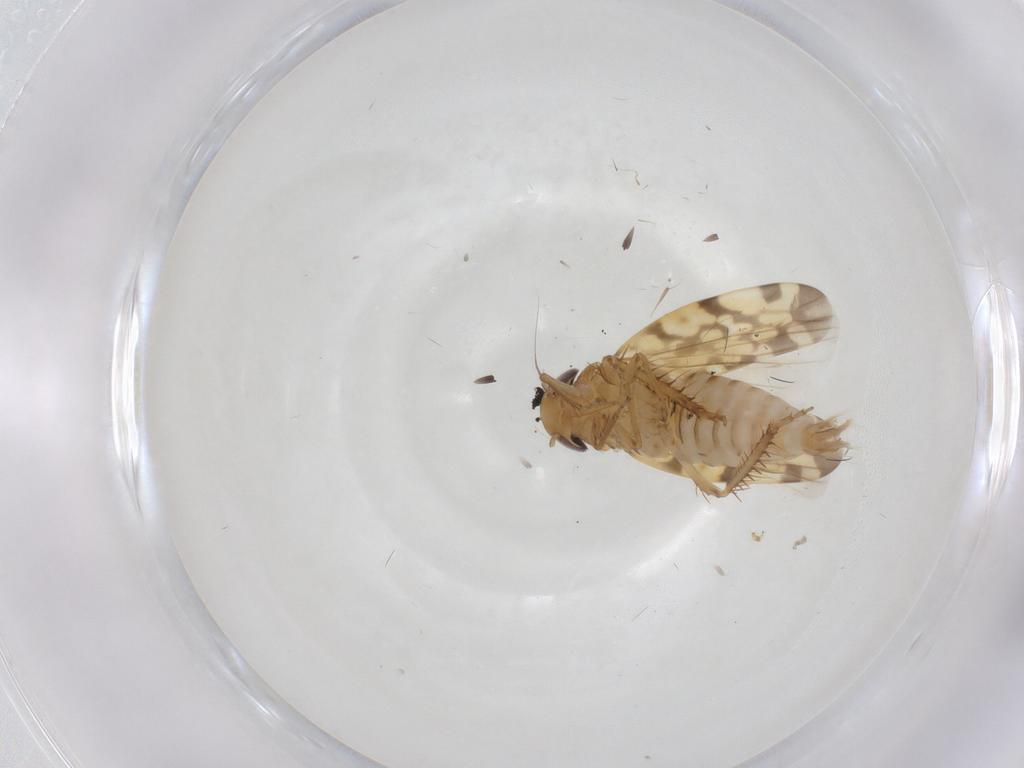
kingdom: Animalia
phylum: Arthropoda
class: Insecta
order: Hemiptera
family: Cicadellidae
